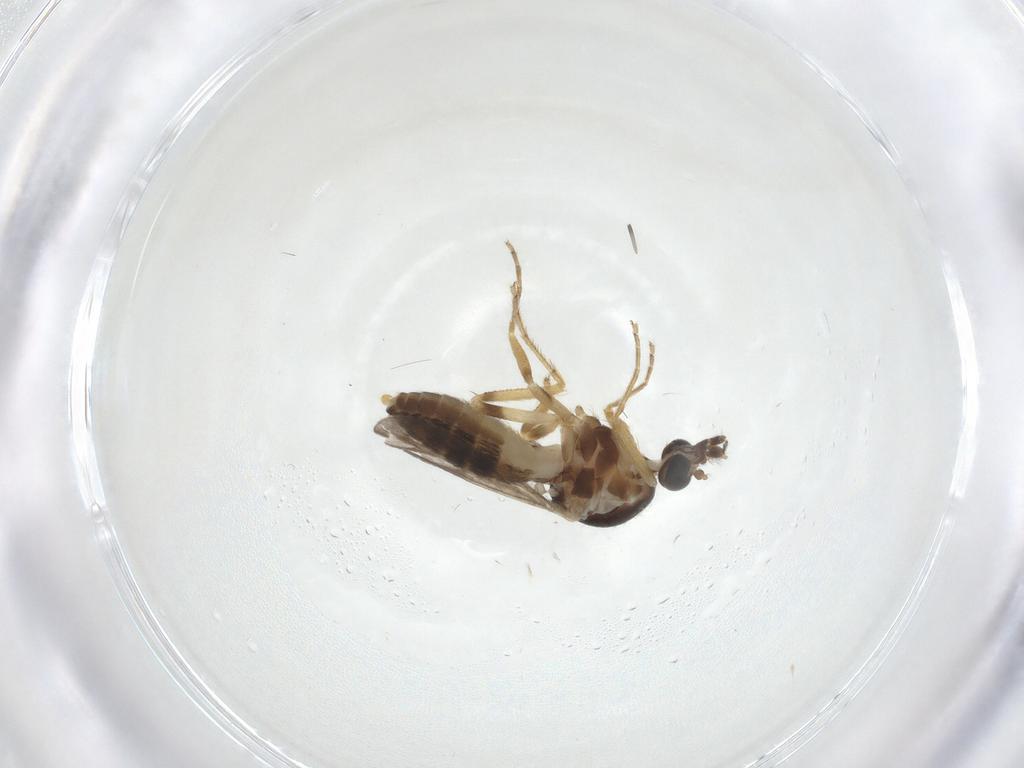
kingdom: Animalia
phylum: Arthropoda
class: Insecta
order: Diptera
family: Ceratopogonidae
